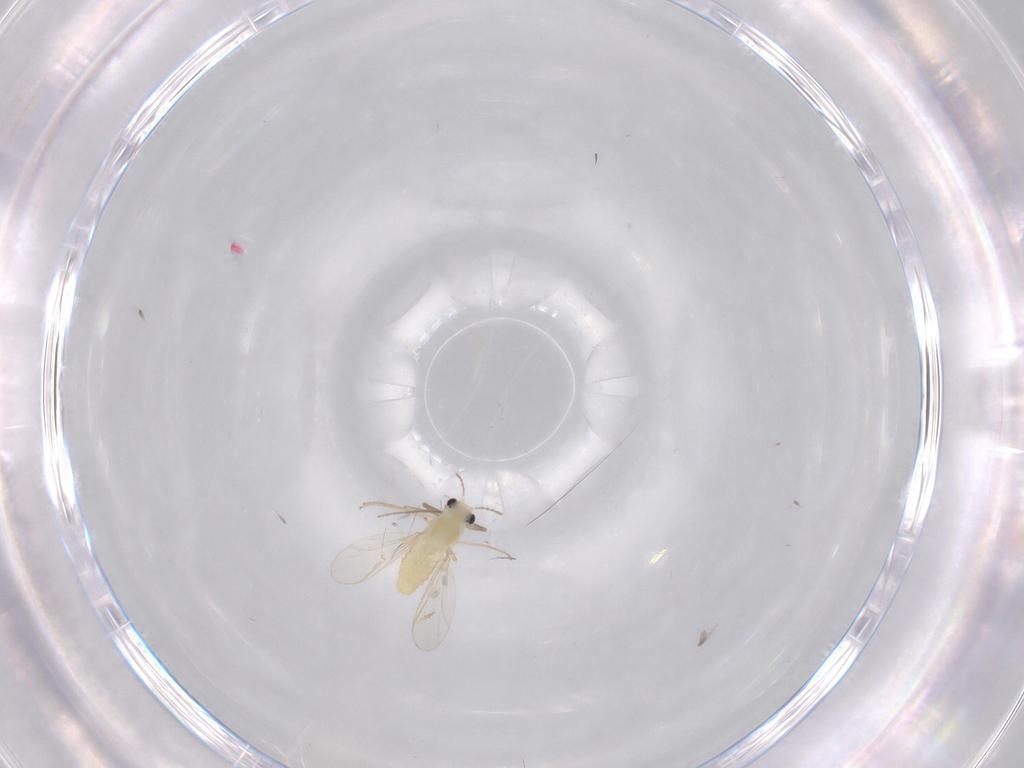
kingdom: Animalia
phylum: Arthropoda
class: Insecta
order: Diptera
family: Chironomidae
